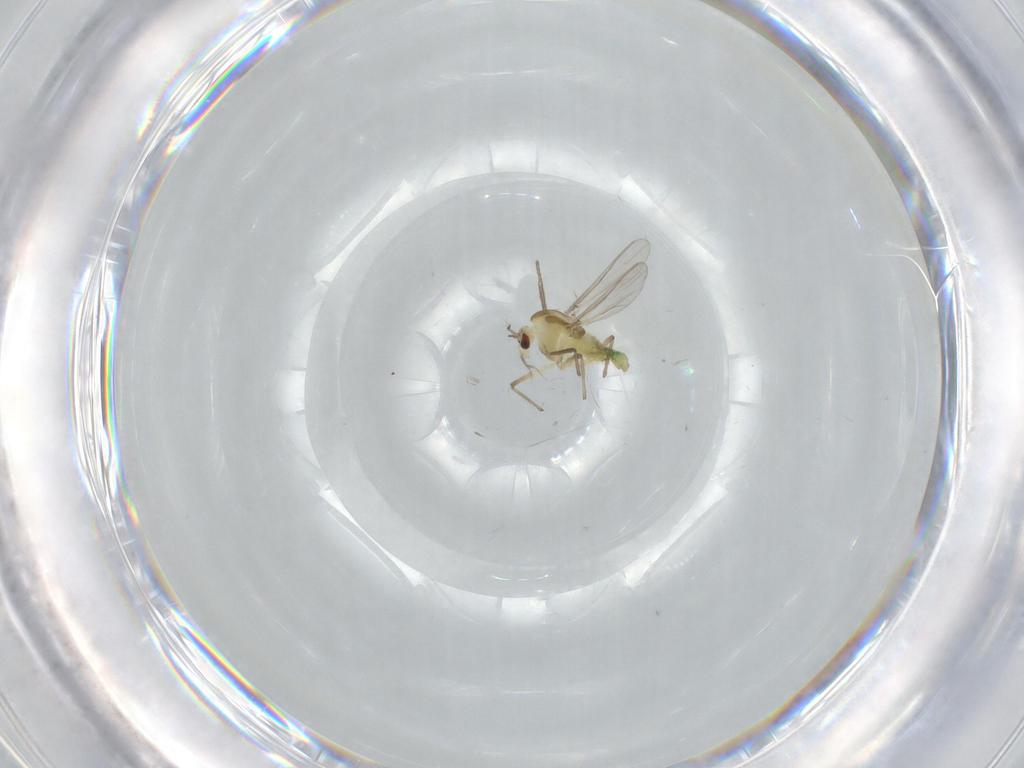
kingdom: Animalia
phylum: Arthropoda
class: Insecta
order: Diptera
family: Chironomidae
